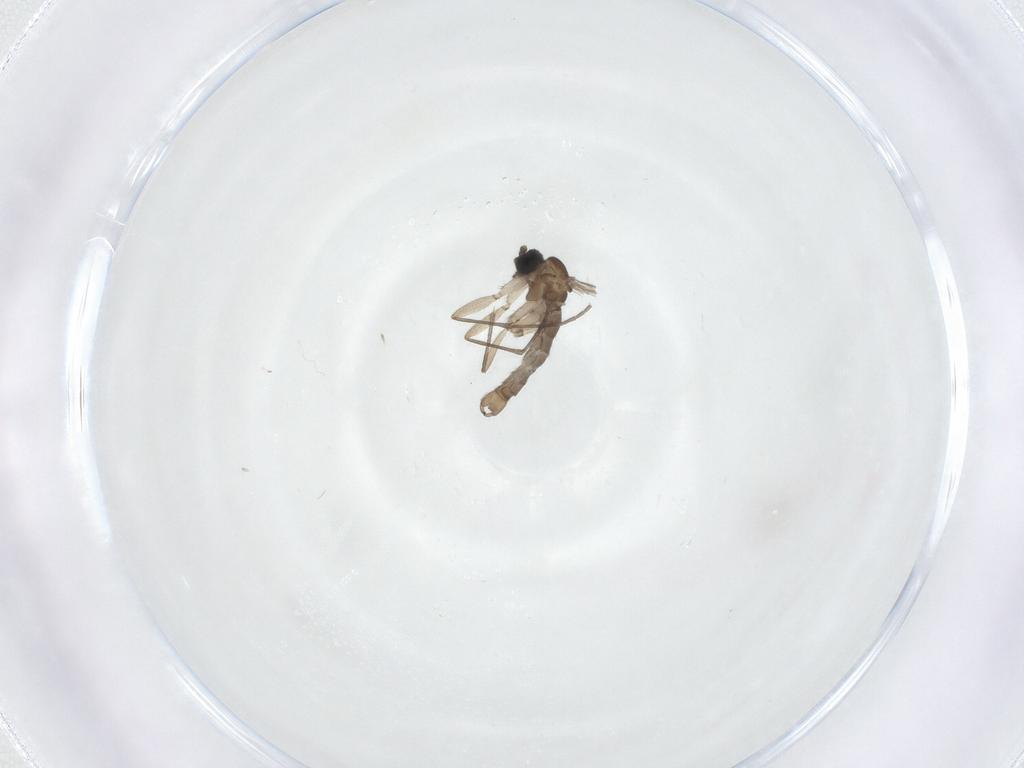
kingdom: Animalia
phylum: Arthropoda
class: Insecta
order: Diptera
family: Sciaridae
